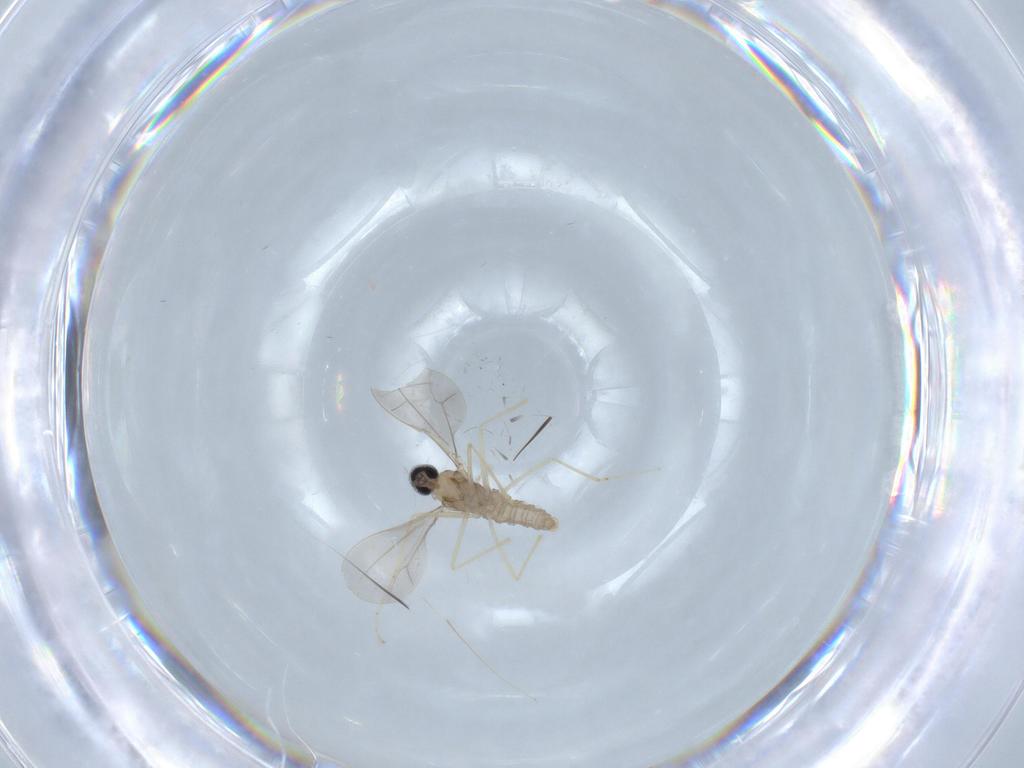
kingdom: Animalia
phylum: Arthropoda
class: Insecta
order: Diptera
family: Cecidomyiidae
